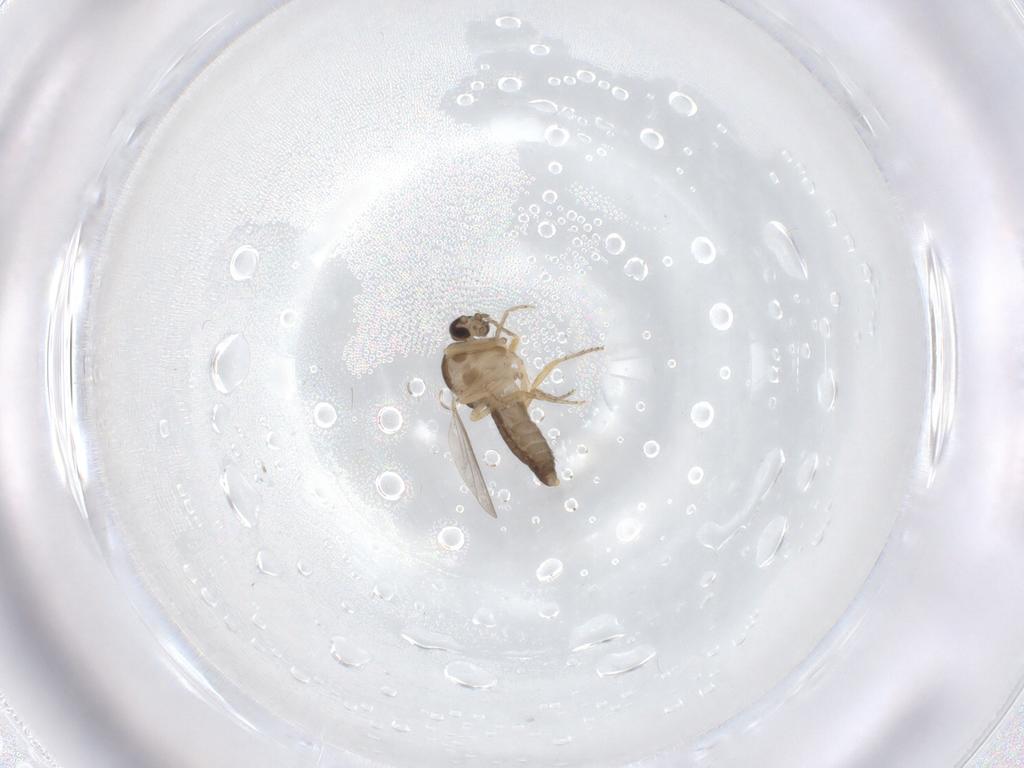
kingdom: Animalia
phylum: Arthropoda
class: Insecta
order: Diptera
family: Ceratopogonidae
